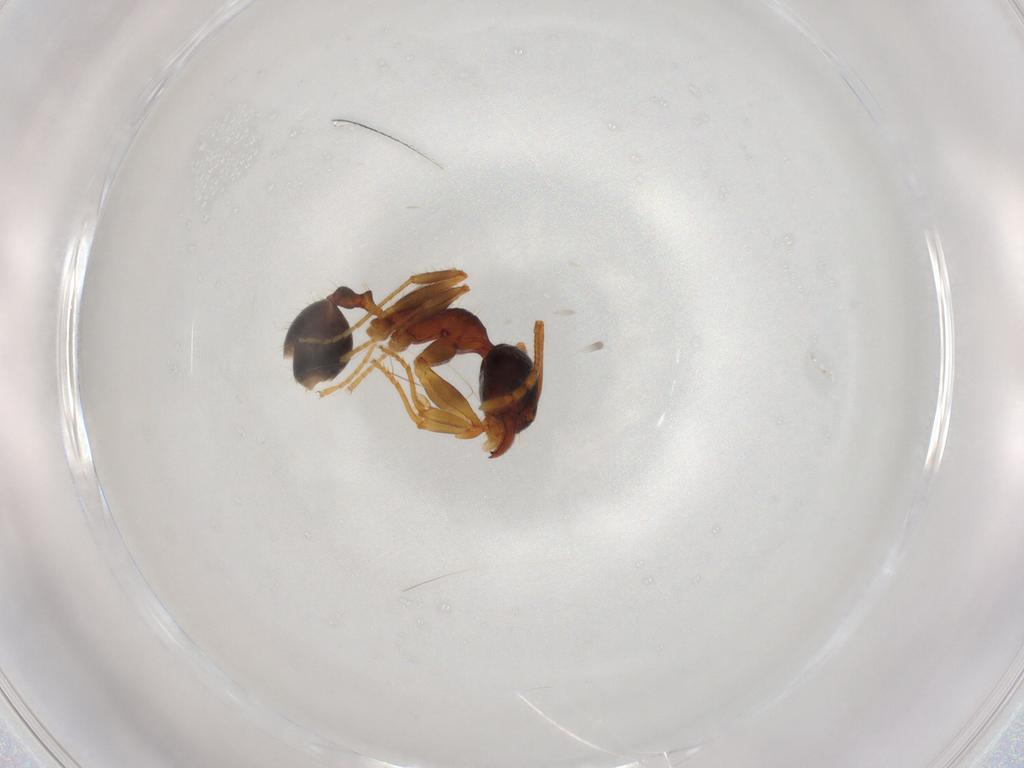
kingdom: Animalia
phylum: Arthropoda
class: Insecta
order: Hymenoptera
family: Formicidae
